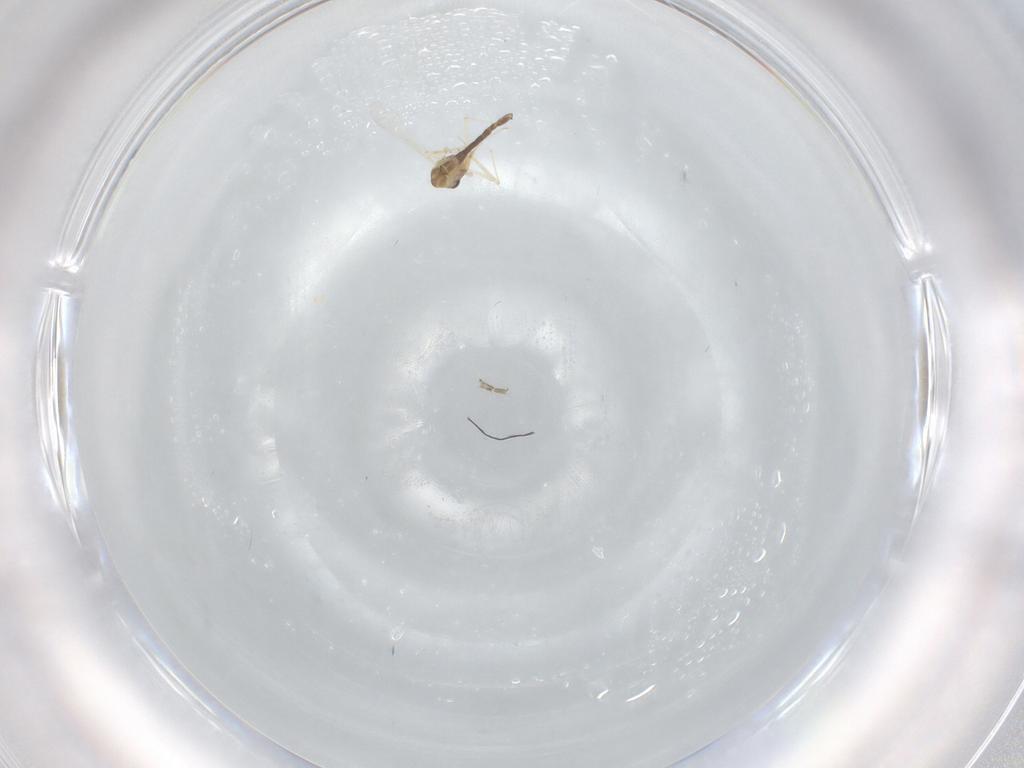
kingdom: Animalia
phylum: Arthropoda
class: Insecta
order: Diptera
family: Chironomidae
